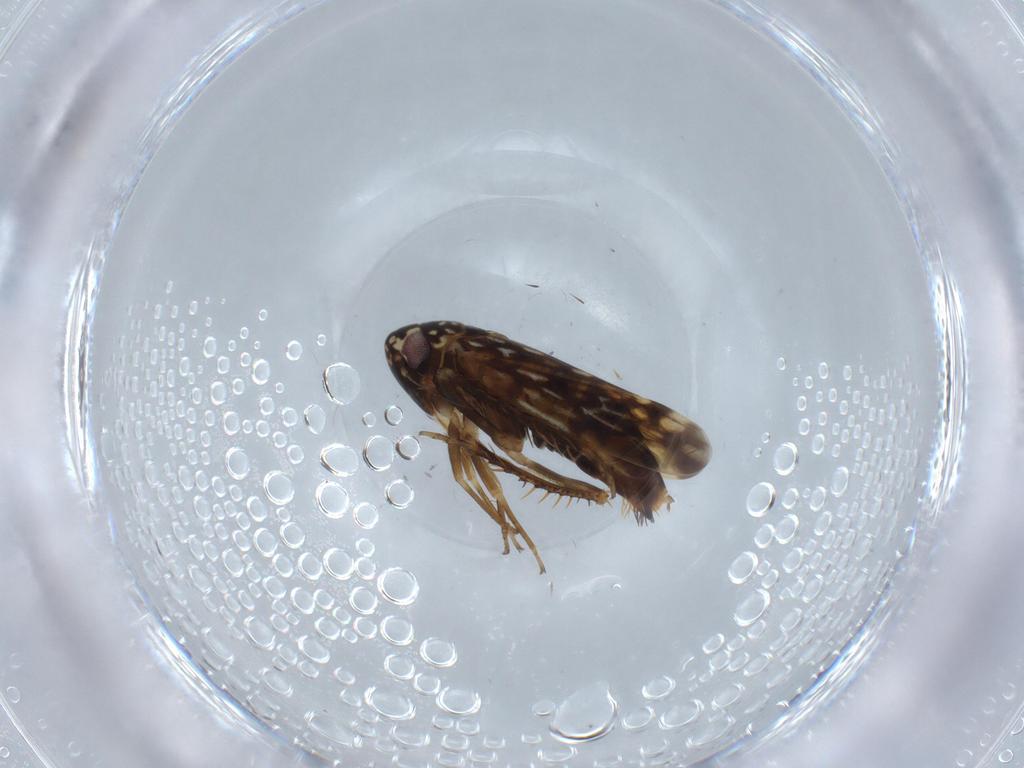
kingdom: Animalia
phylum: Arthropoda
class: Insecta
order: Hemiptera
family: Cicadellidae
